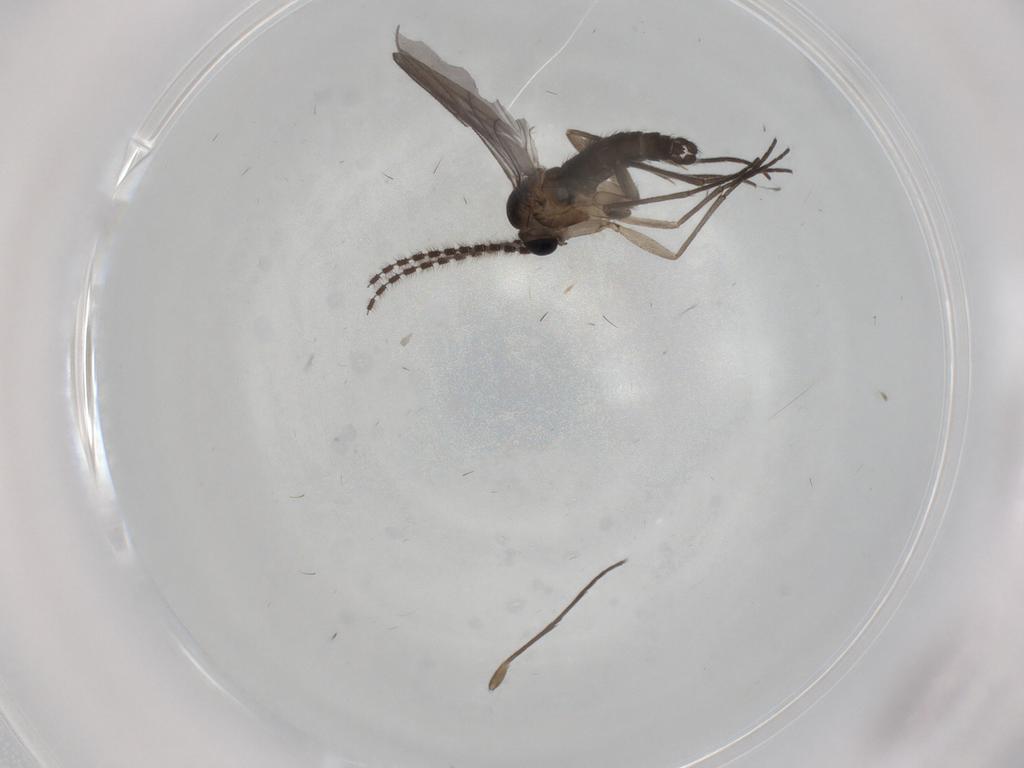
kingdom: Animalia
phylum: Arthropoda
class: Insecta
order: Diptera
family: Sciaridae
